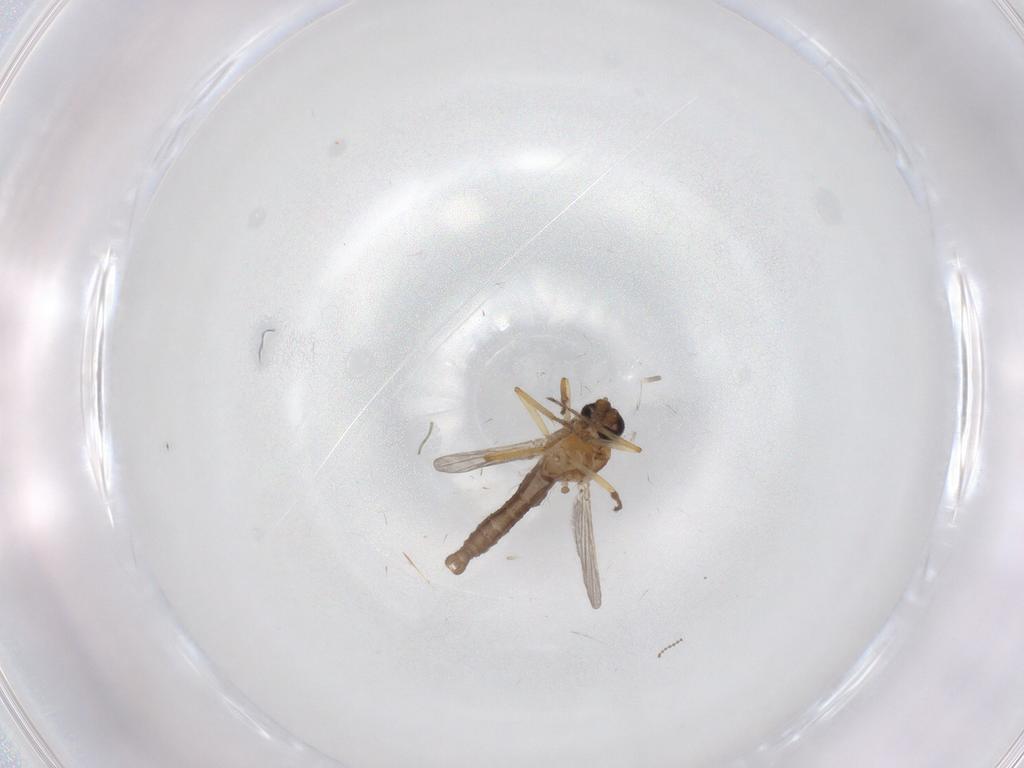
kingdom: Animalia
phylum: Arthropoda
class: Insecta
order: Diptera
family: Ceratopogonidae
